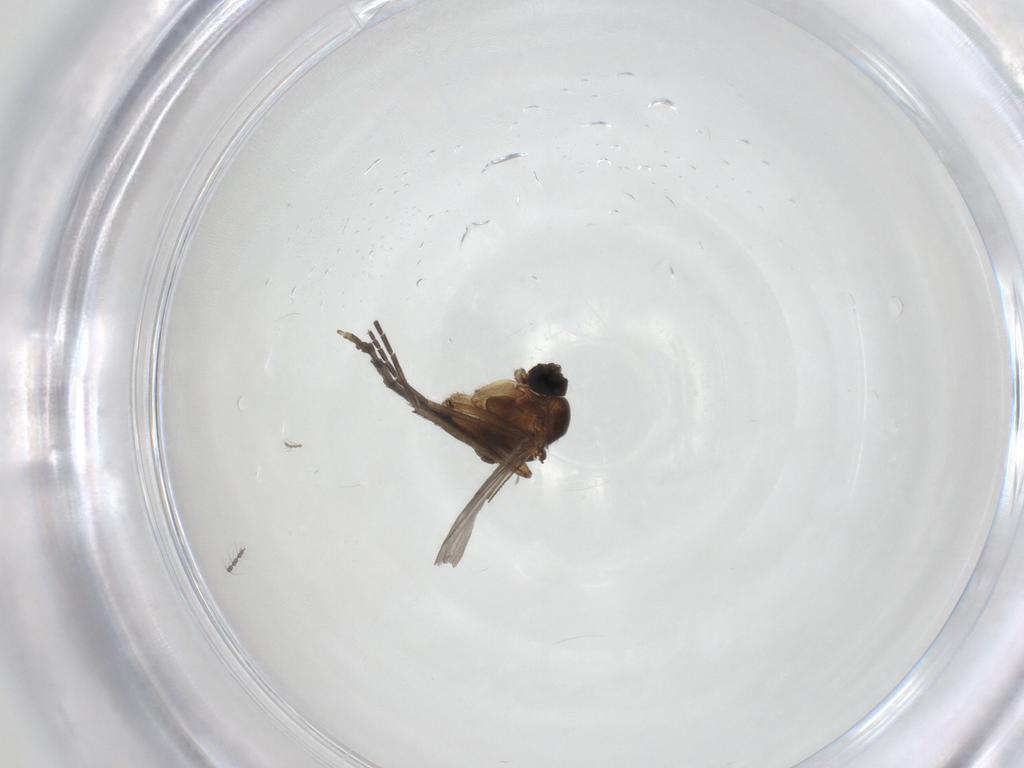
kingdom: Animalia
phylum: Arthropoda
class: Insecta
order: Diptera
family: Sciaridae
